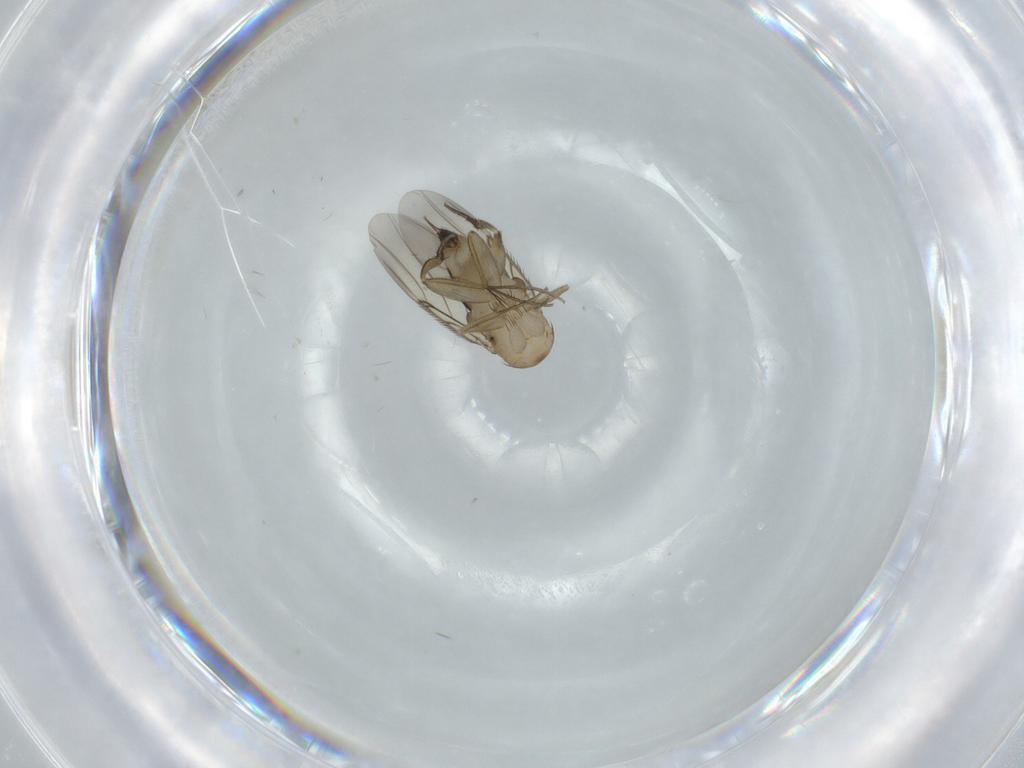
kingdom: Animalia
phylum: Arthropoda
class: Insecta
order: Diptera
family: Phoridae
